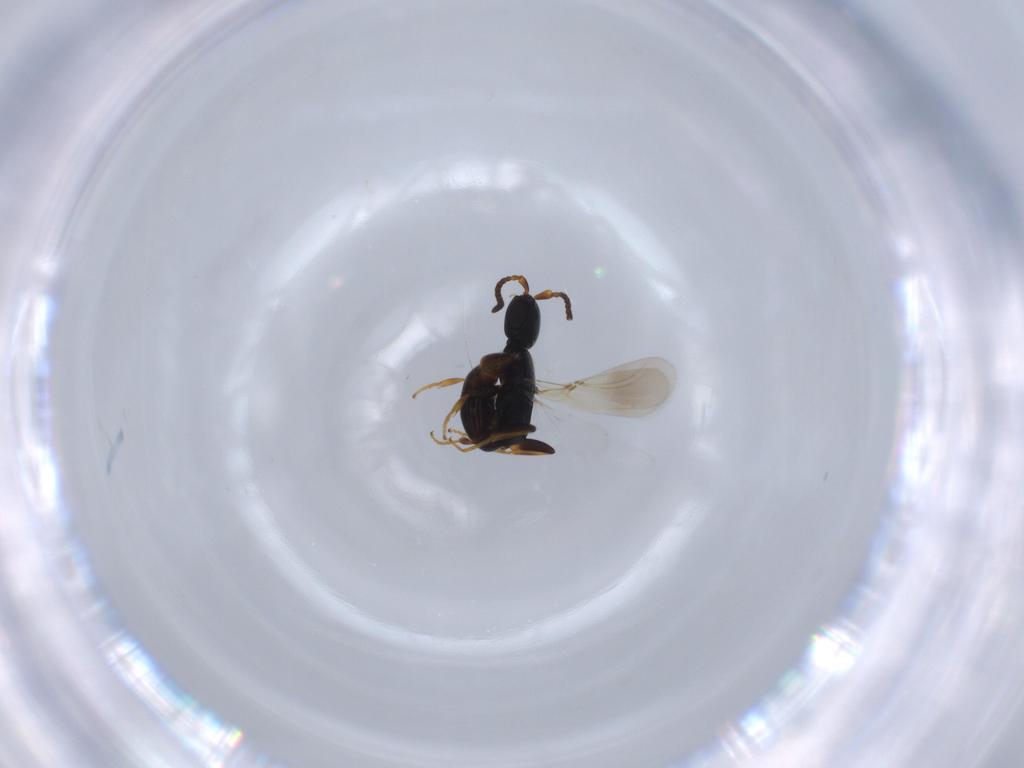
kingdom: Animalia
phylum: Arthropoda
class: Insecta
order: Hymenoptera
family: Bethylidae
